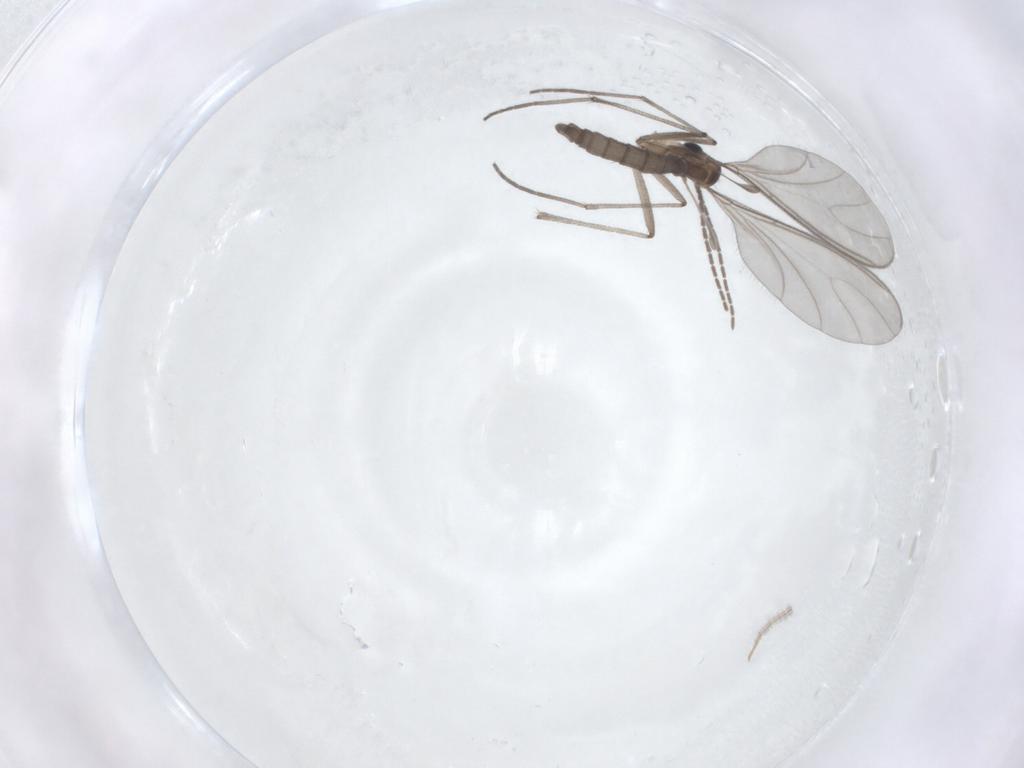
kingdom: Animalia
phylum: Arthropoda
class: Insecta
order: Diptera
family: Sciaridae
